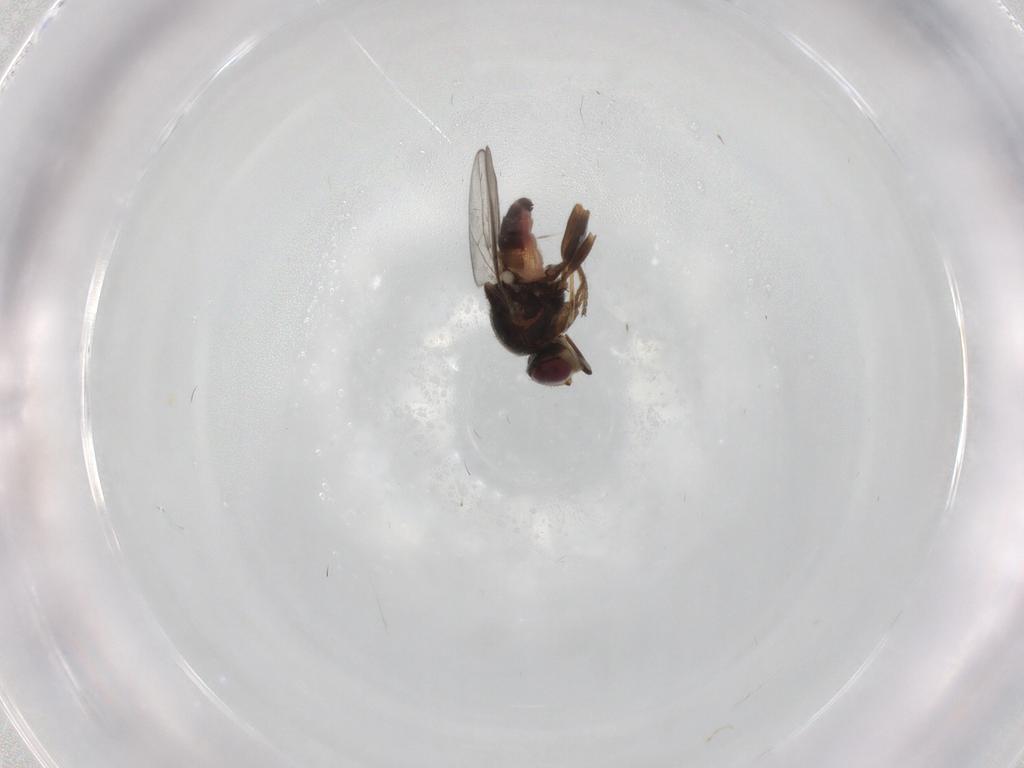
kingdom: Animalia
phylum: Arthropoda
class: Insecta
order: Diptera
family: Chloropidae
